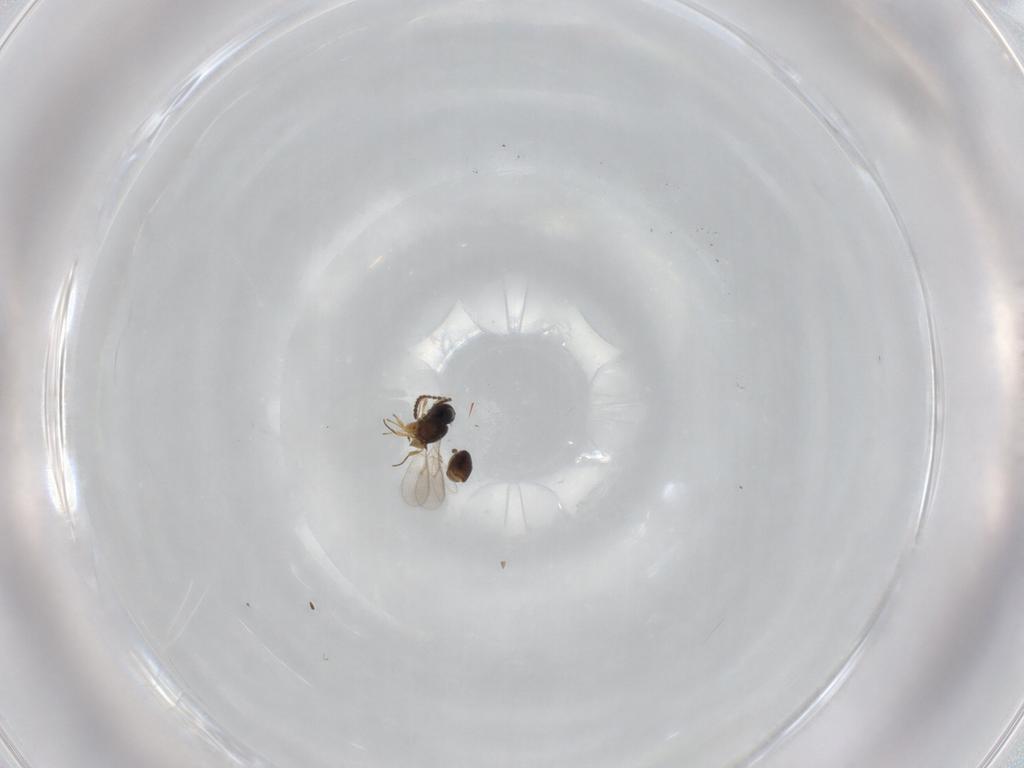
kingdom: Animalia
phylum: Arthropoda
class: Insecta
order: Hymenoptera
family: Scelionidae
